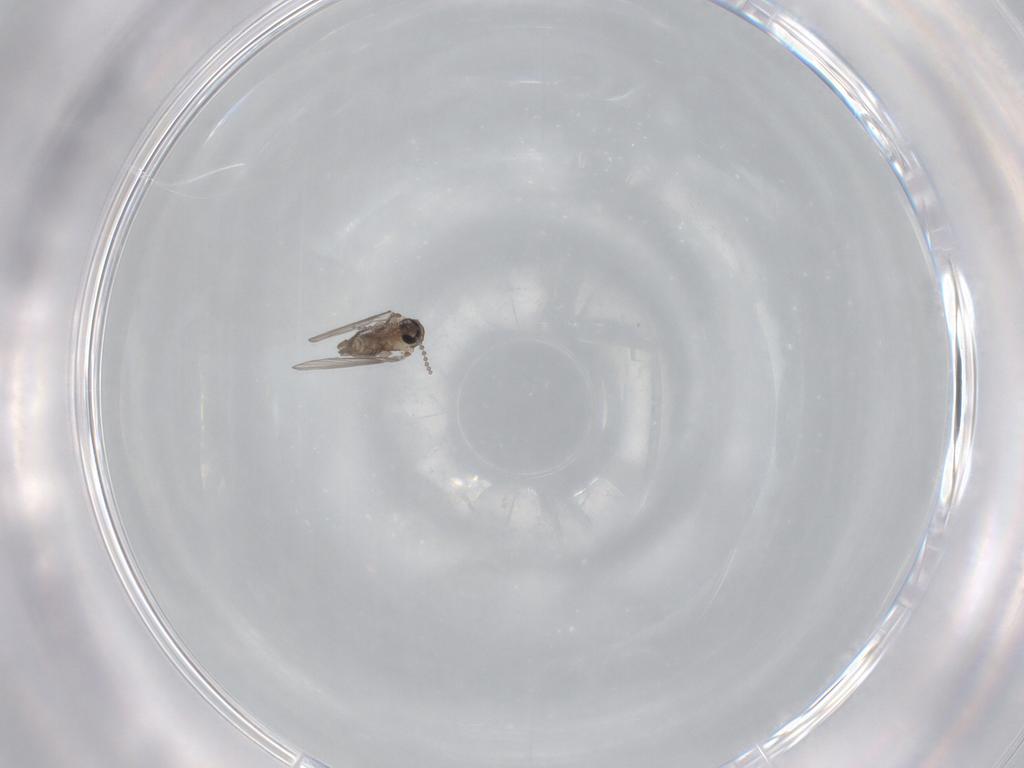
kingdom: Animalia
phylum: Arthropoda
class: Insecta
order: Diptera
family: Psychodidae
